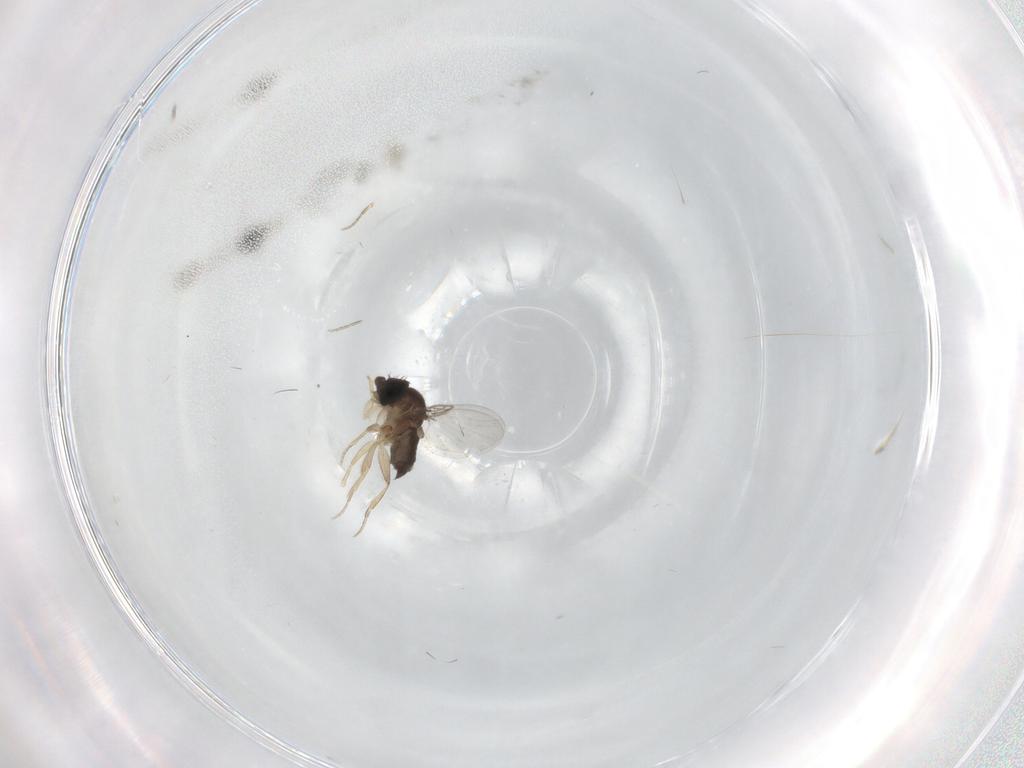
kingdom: Animalia
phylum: Arthropoda
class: Insecta
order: Diptera
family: Phoridae
